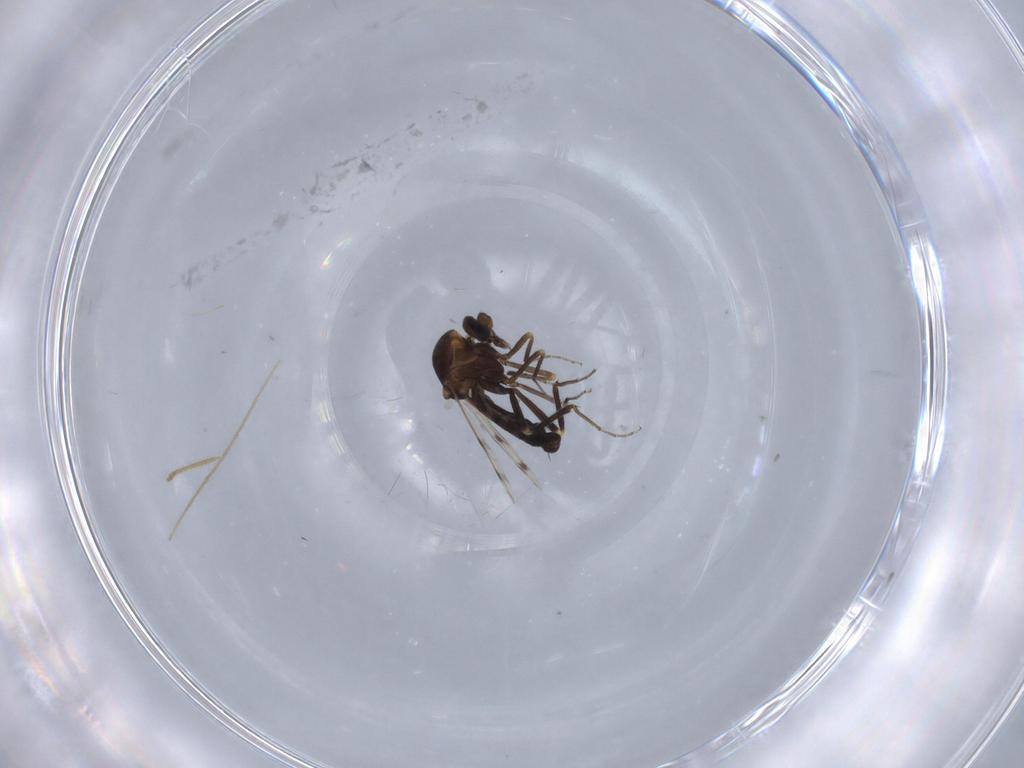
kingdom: Animalia
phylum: Arthropoda
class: Insecta
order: Diptera
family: Ceratopogonidae
